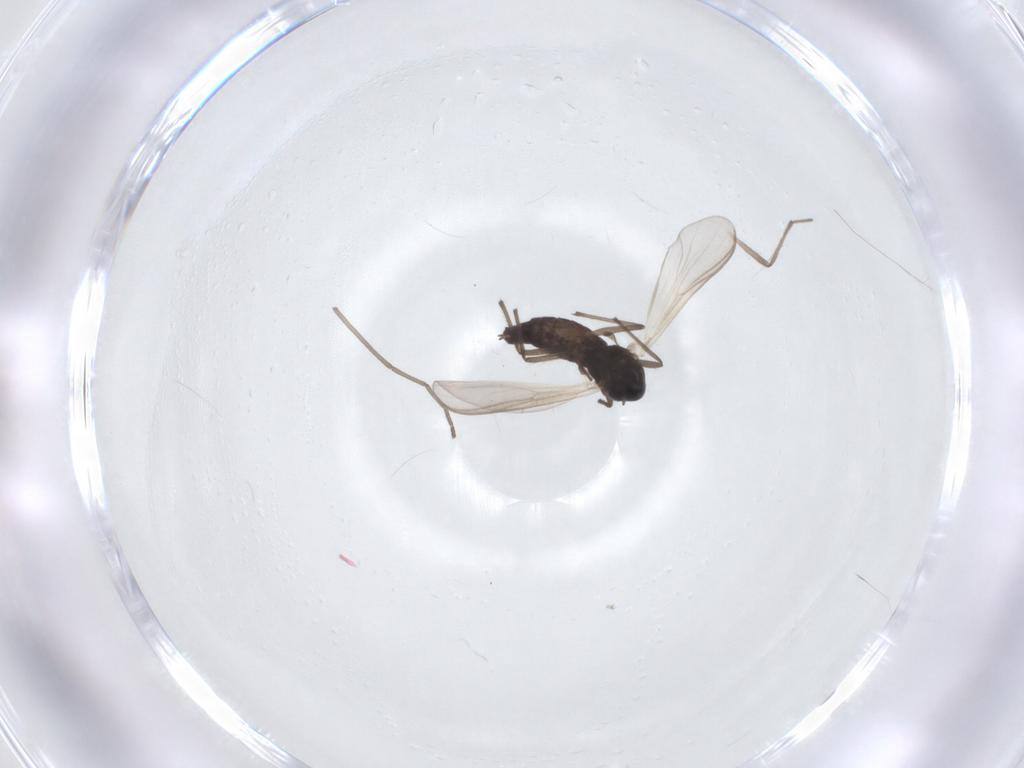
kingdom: Animalia
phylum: Arthropoda
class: Insecta
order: Diptera
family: Chironomidae
